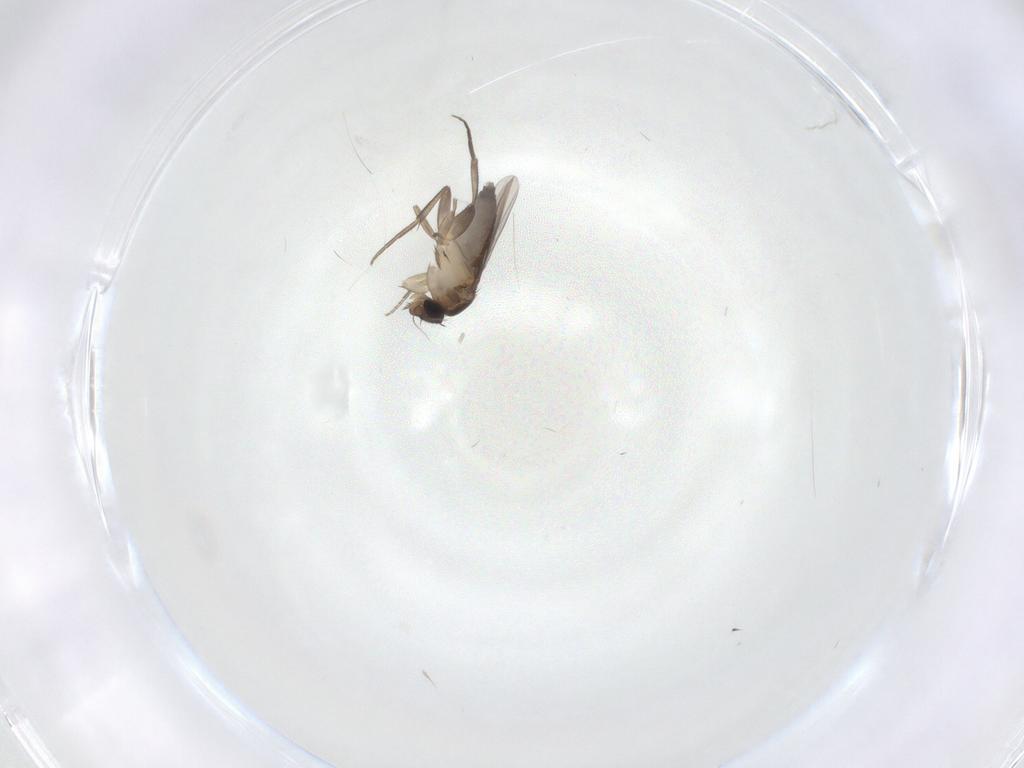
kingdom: Animalia
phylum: Arthropoda
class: Insecta
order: Diptera
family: Phoridae
